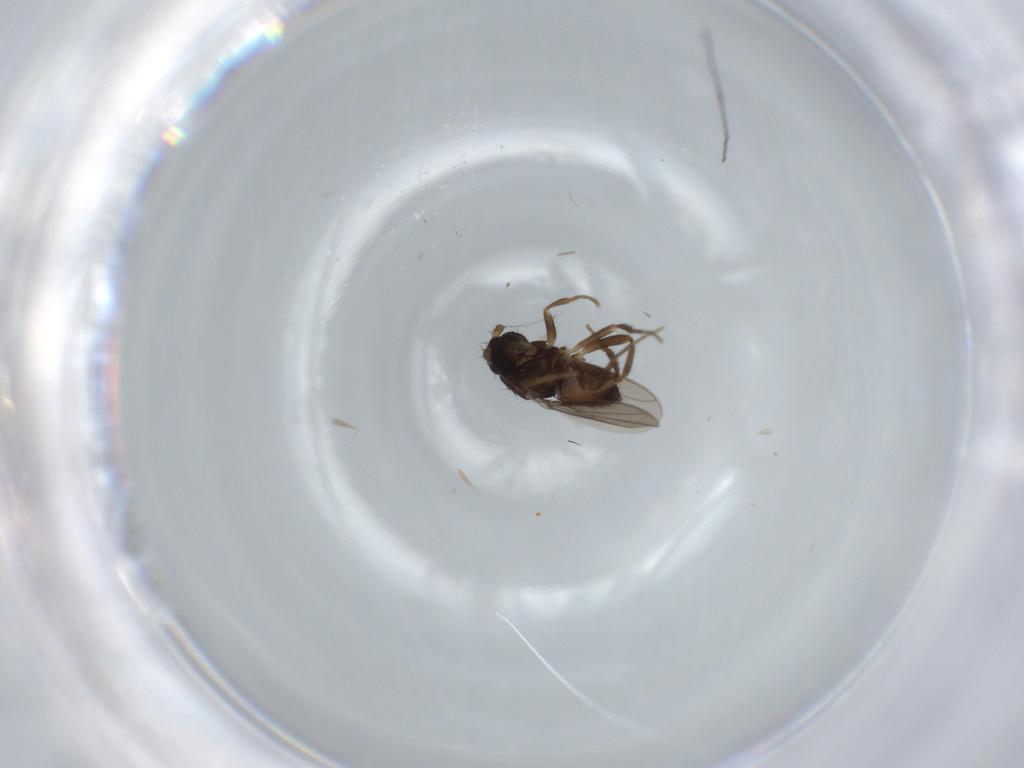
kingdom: Animalia
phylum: Arthropoda
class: Insecta
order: Diptera
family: Sphaeroceridae
